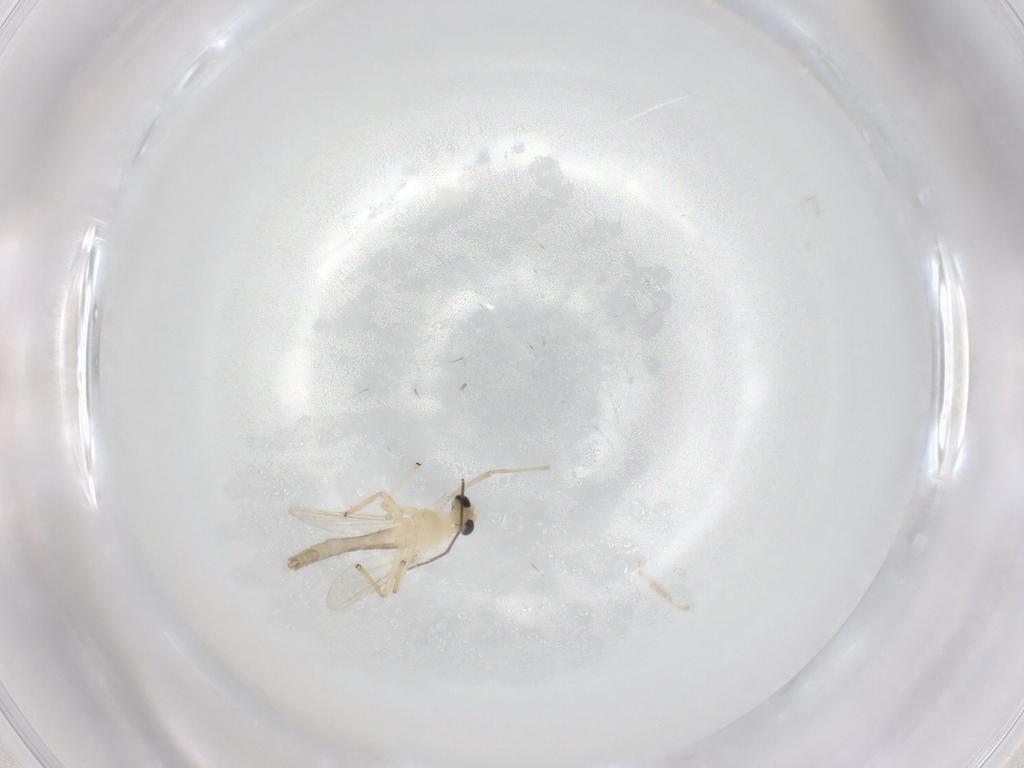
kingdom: Animalia
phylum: Arthropoda
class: Insecta
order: Diptera
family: Chironomidae
